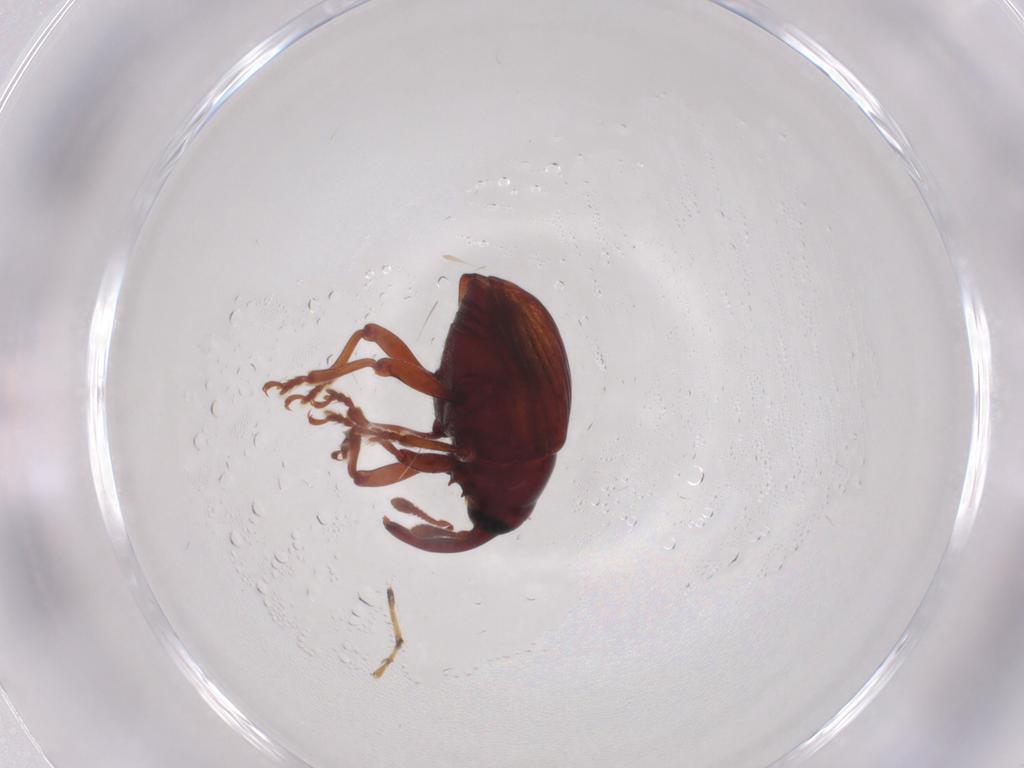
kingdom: Animalia
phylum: Arthropoda
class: Insecta
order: Coleoptera
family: Curculionidae
